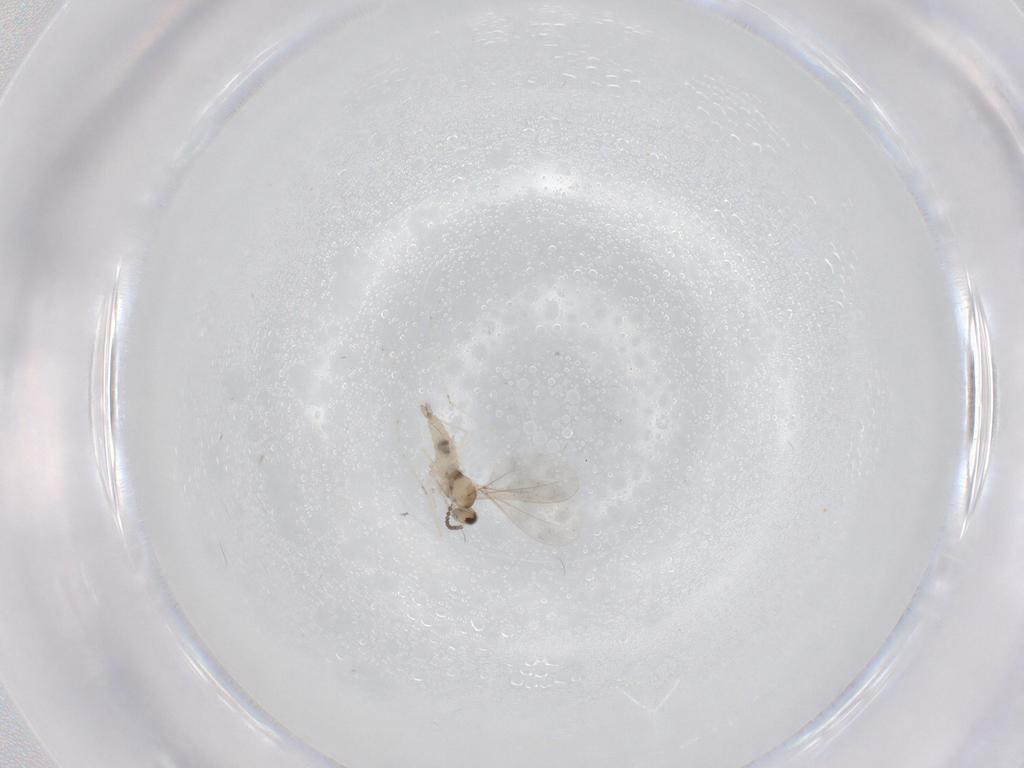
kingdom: Animalia
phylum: Arthropoda
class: Insecta
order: Diptera
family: Cecidomyiidae
